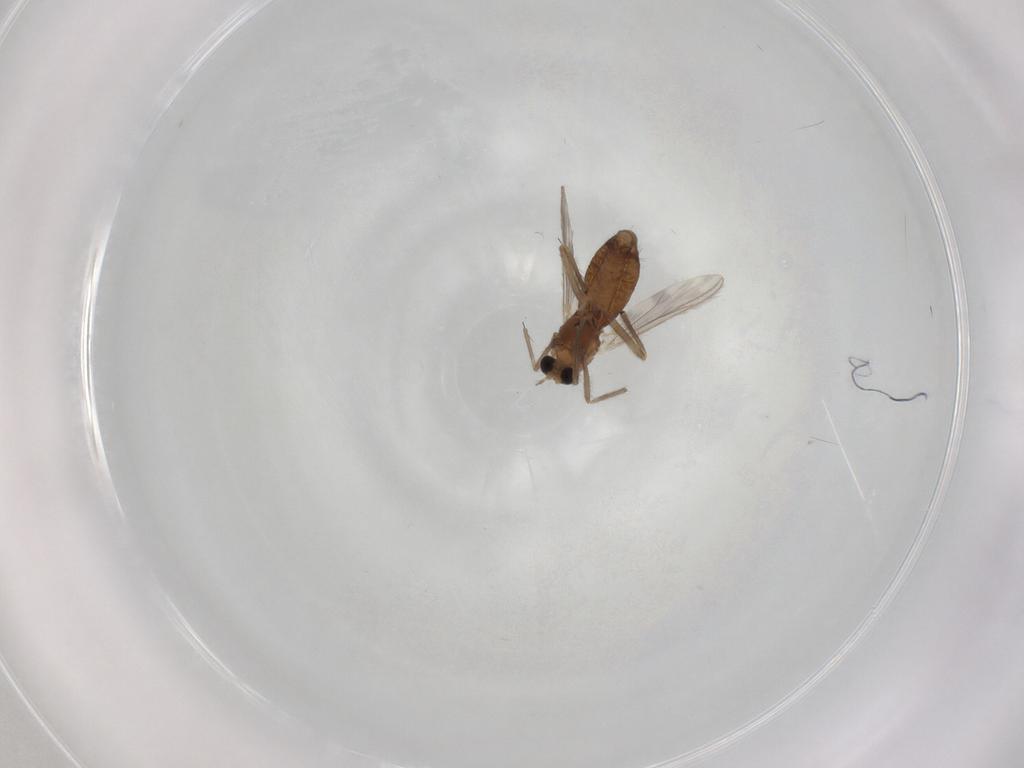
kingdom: Animalia
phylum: Arthropoda
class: Insecta
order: Diptera
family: Chironomidae
